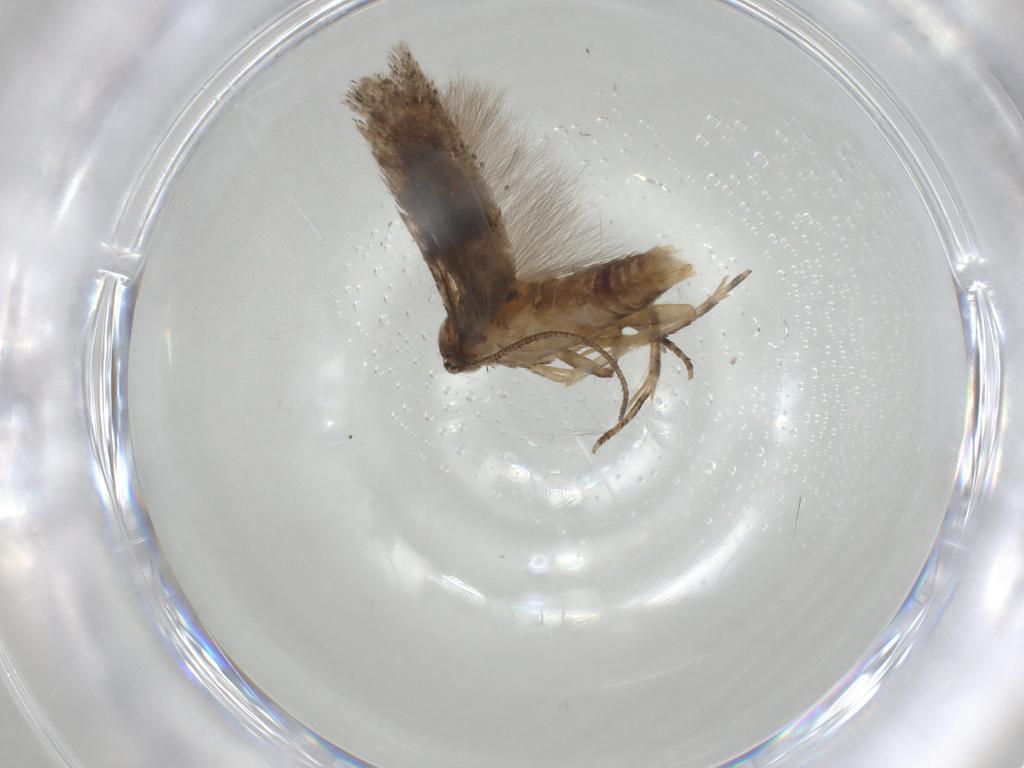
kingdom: Animalia
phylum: Arthropoda
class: Insecta
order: Lepidoptera
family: Gelechiidae
